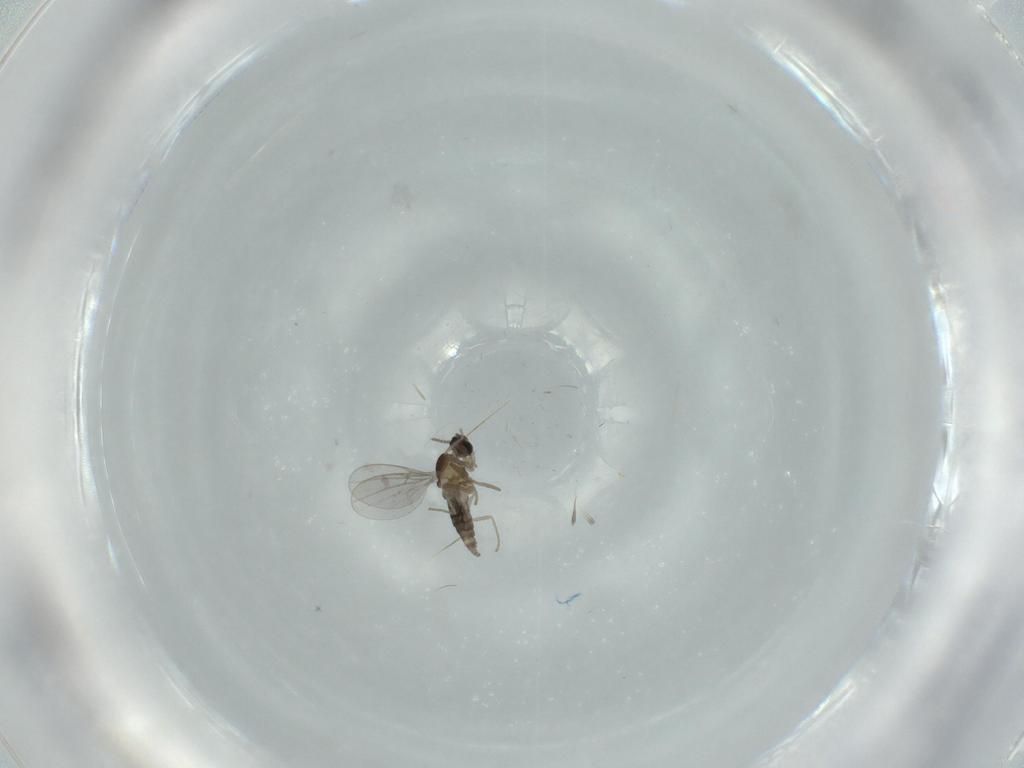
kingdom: Animalia
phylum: Arthropoda
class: Insecta
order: Diptera
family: Cecidomyiidae
